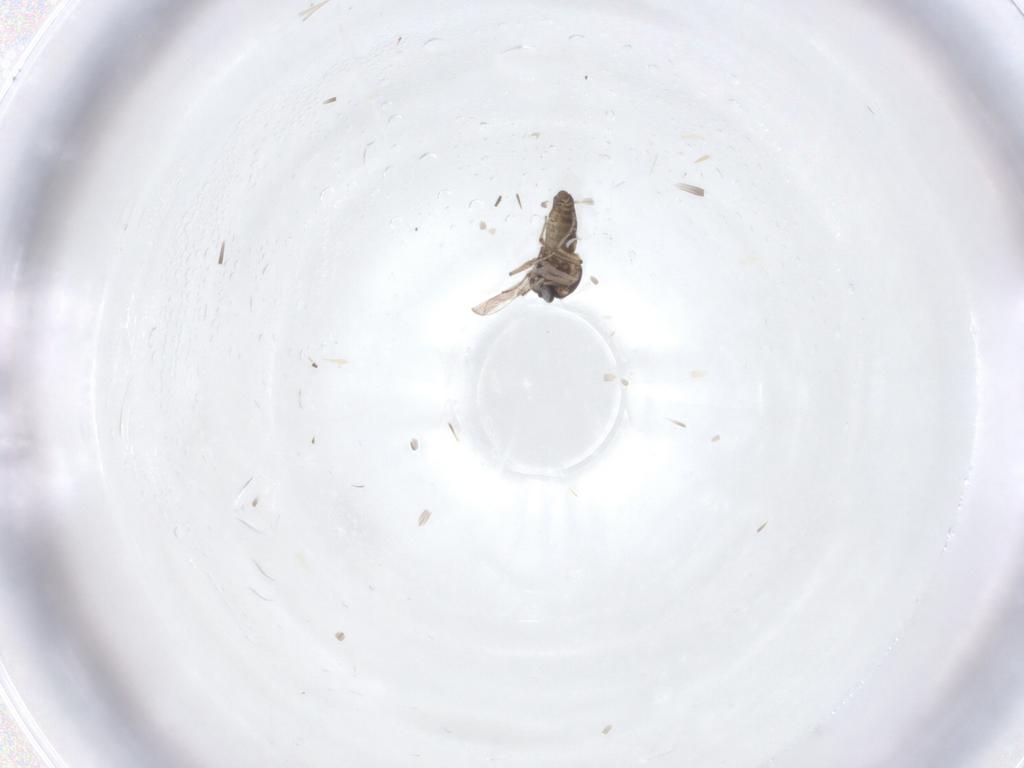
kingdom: Animalia
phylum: Arthropoda
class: Insecta
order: Diptera
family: Ceratopogonidae
